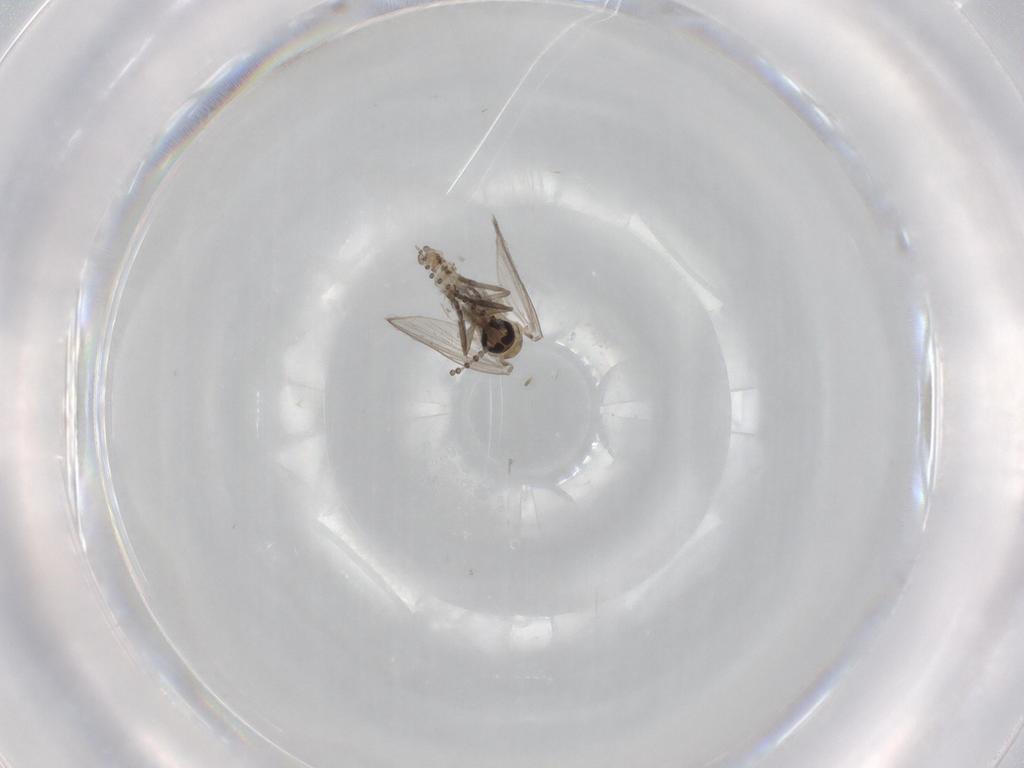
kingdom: Animalia
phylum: Arthropoda
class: Insecta
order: Diptera
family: Psychodidae
